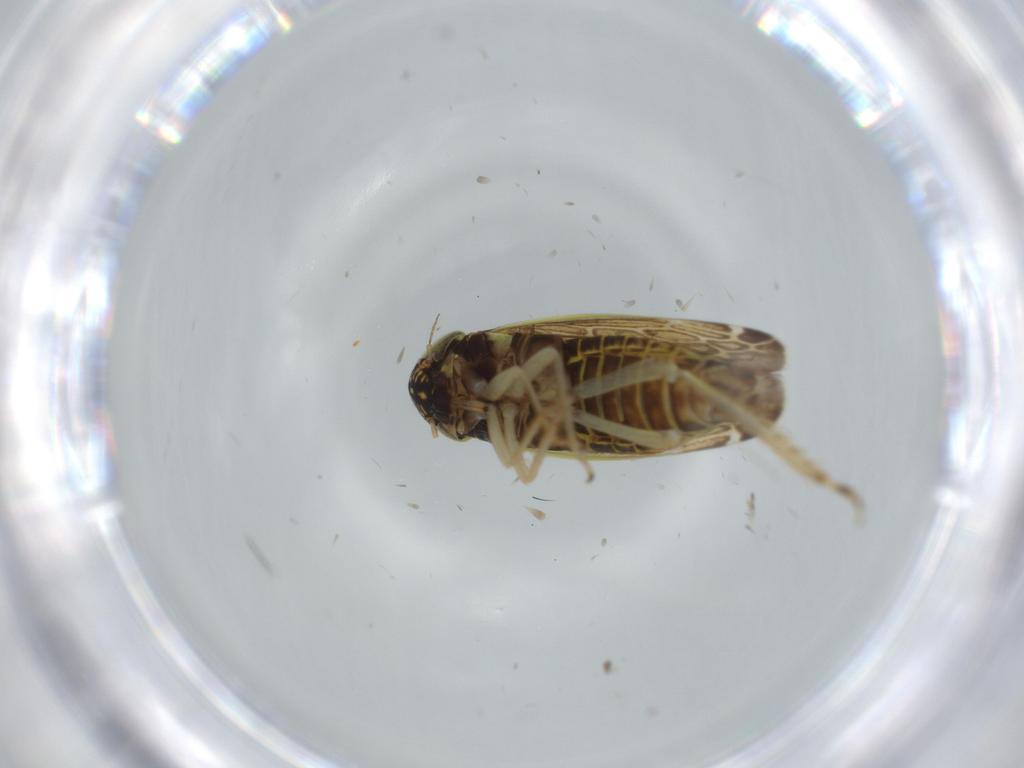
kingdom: Animalia
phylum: Arthropoda
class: Insecta
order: Hemiptera
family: Cicadellidae
